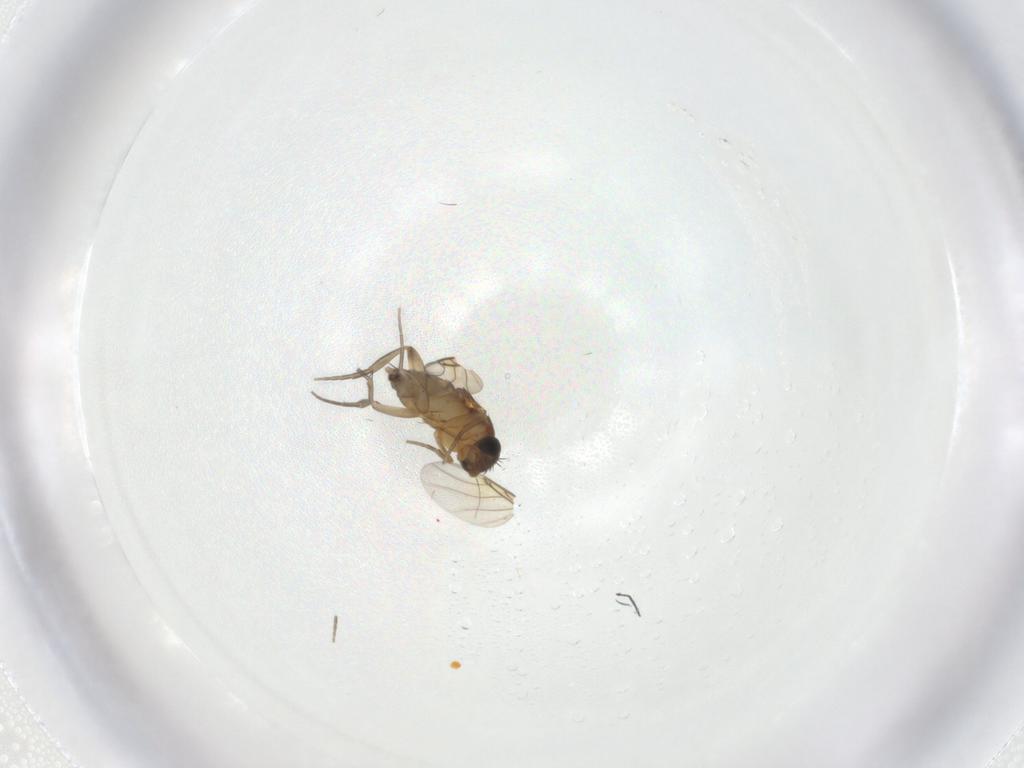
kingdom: Animalia
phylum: Arthropoda
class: Insecta
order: Diptera
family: Phoridae
